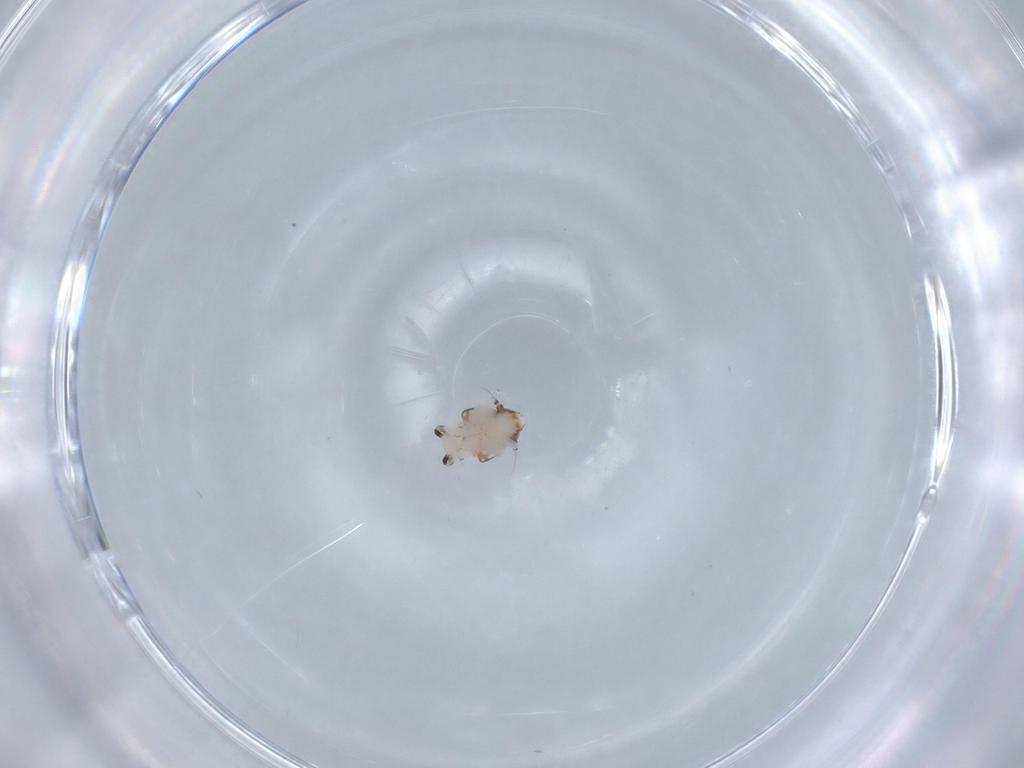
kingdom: Animalia
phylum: Arthropoda
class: Insecta
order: Hemiptera
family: Nogodinidae
